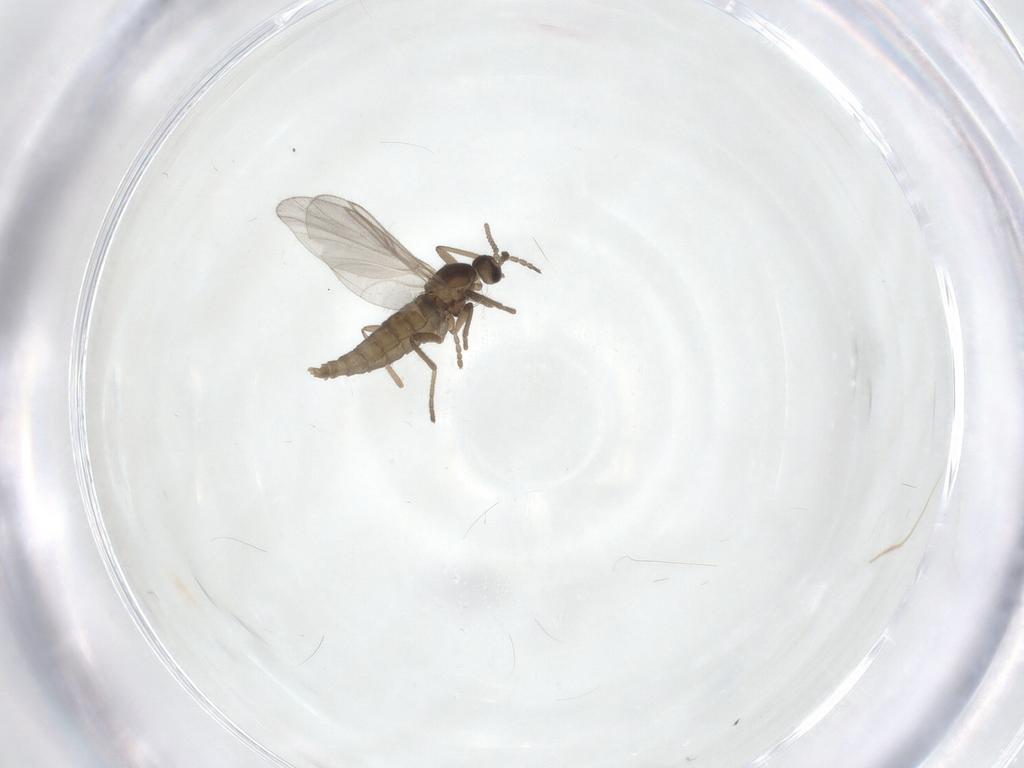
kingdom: Animalia
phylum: Arthropoda
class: Insecta
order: Diptera
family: Cecidomyiidae
